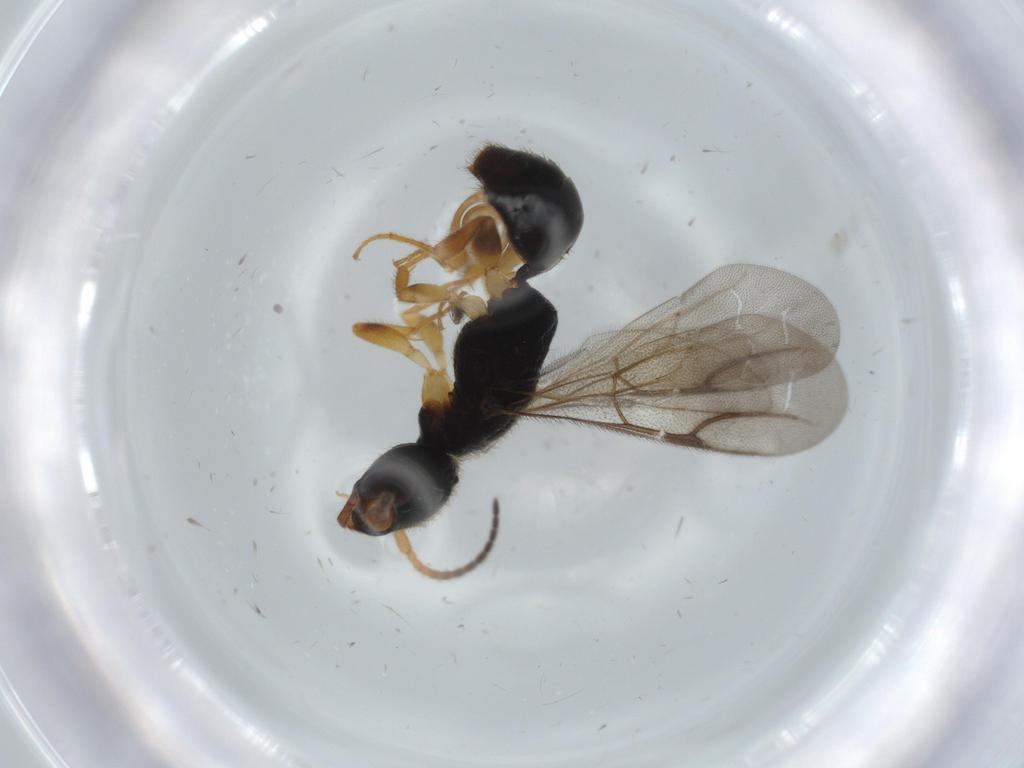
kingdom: Animalia
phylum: Arthropoda
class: Insecta
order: Hymenoptera
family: Bethylidae
